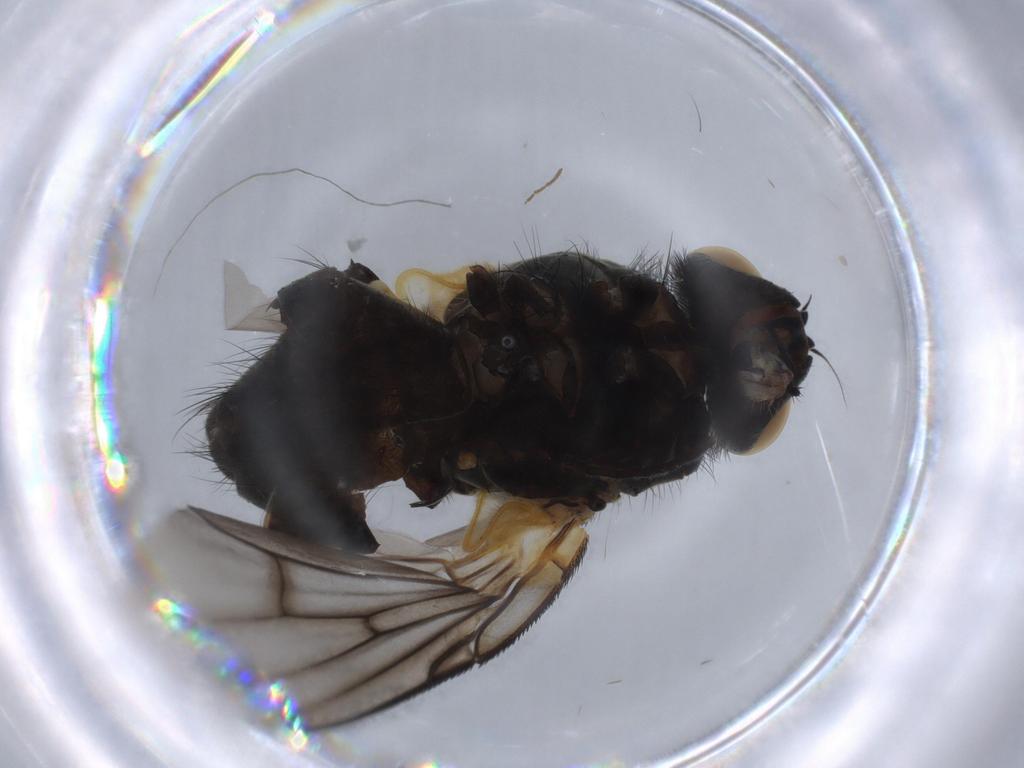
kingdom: Animalia
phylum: Arthropoda
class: Insecta
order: Diptera
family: Muscidae
